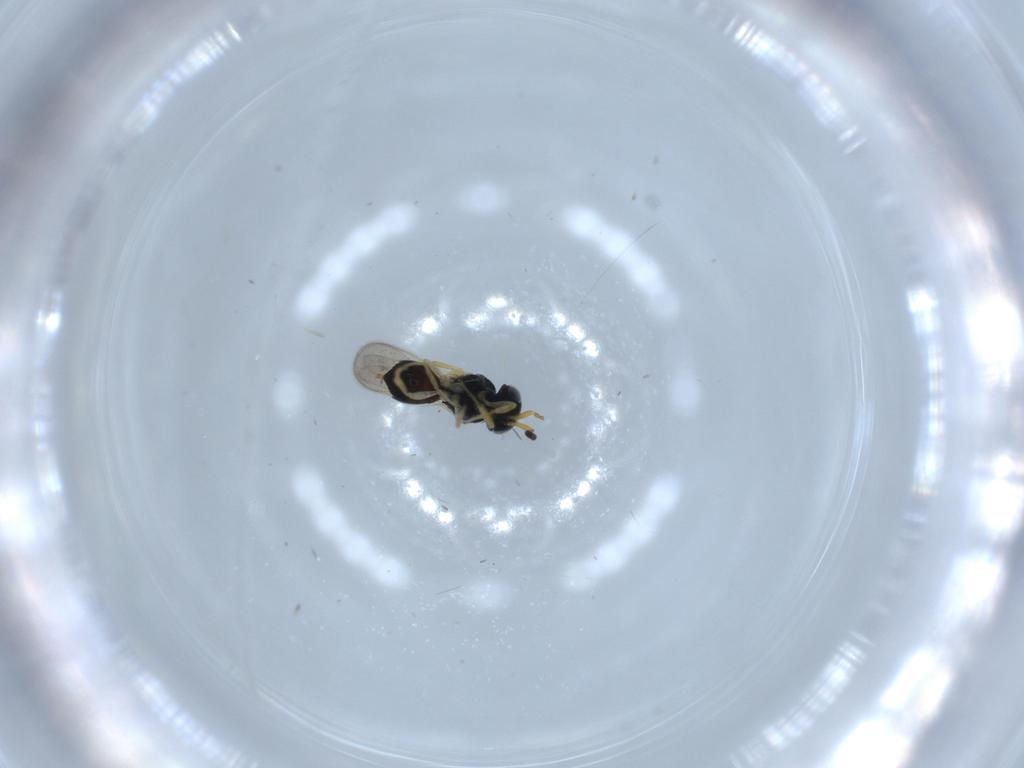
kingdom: Animalia
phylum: Arthropoda
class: Insecta
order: Hymenoptera
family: Scelionidae
